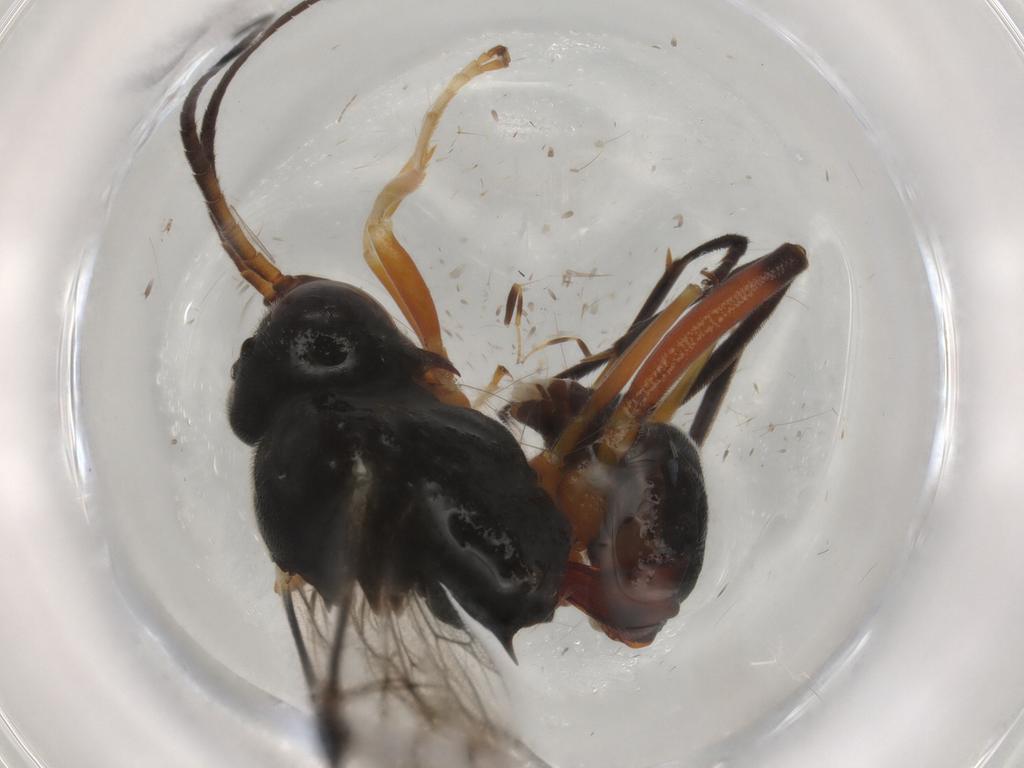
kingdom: Animalia
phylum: Arthropoda
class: Insecta
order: Hymenoptera
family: Ichneumonidae
